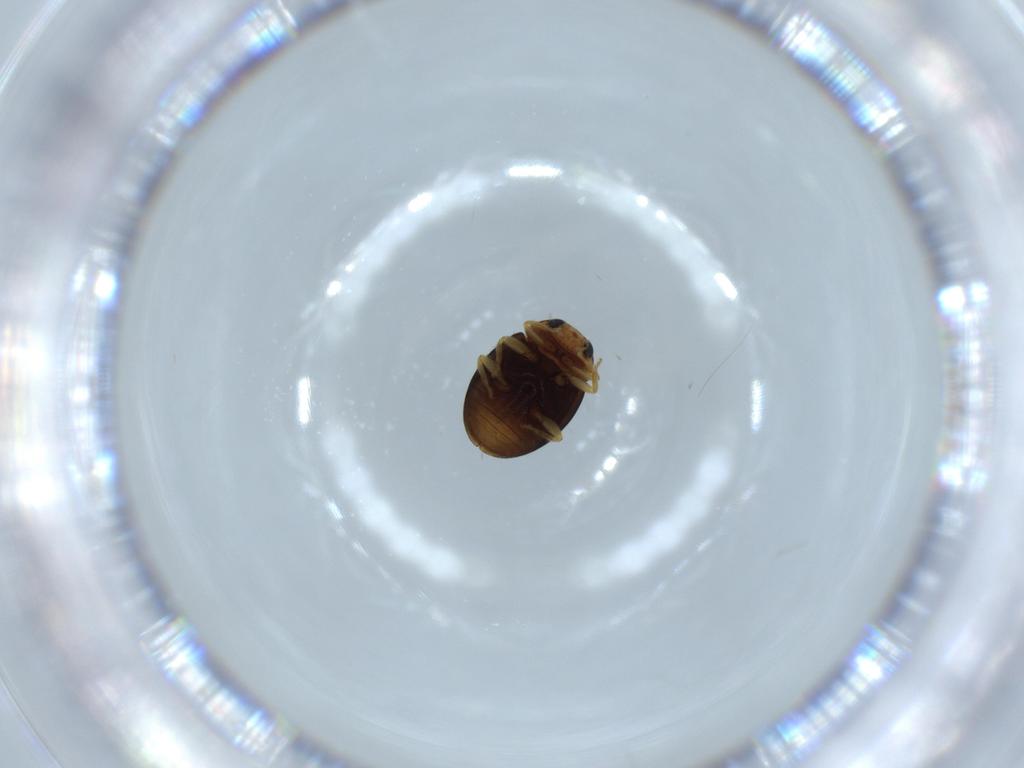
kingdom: Animalia
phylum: Arthropoda
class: Insecta
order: Coleoptera
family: Coccinellidae
